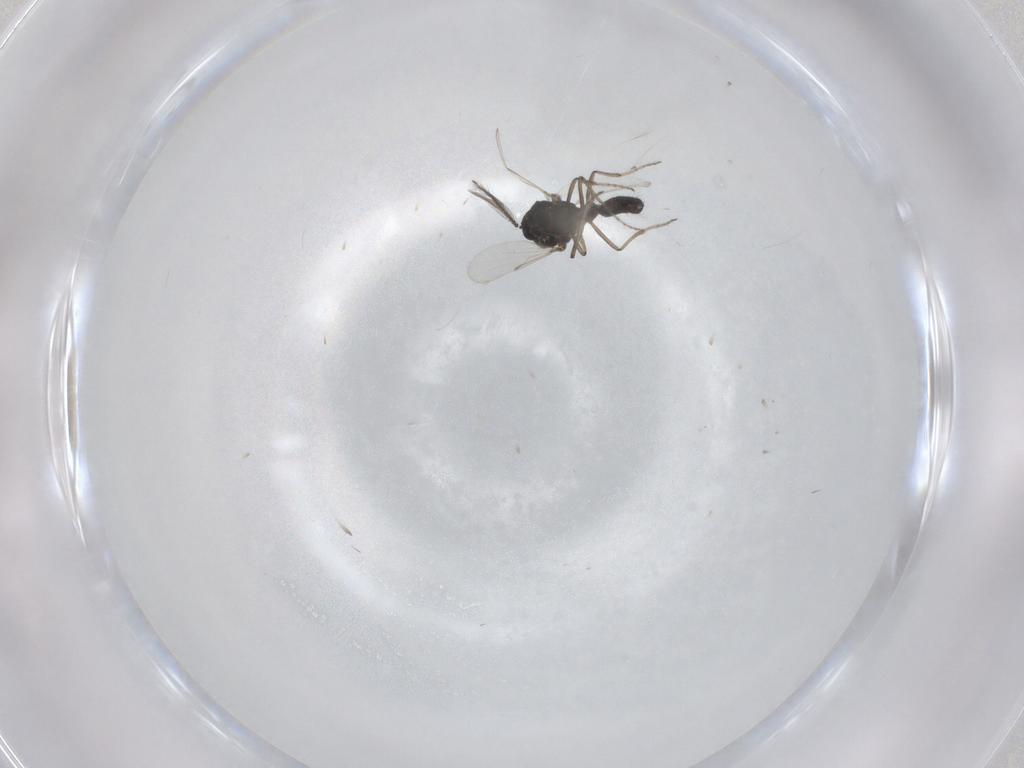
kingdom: Animalia
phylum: Arthropoda
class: Insecta
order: Diptera
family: Ceratopogonidae
